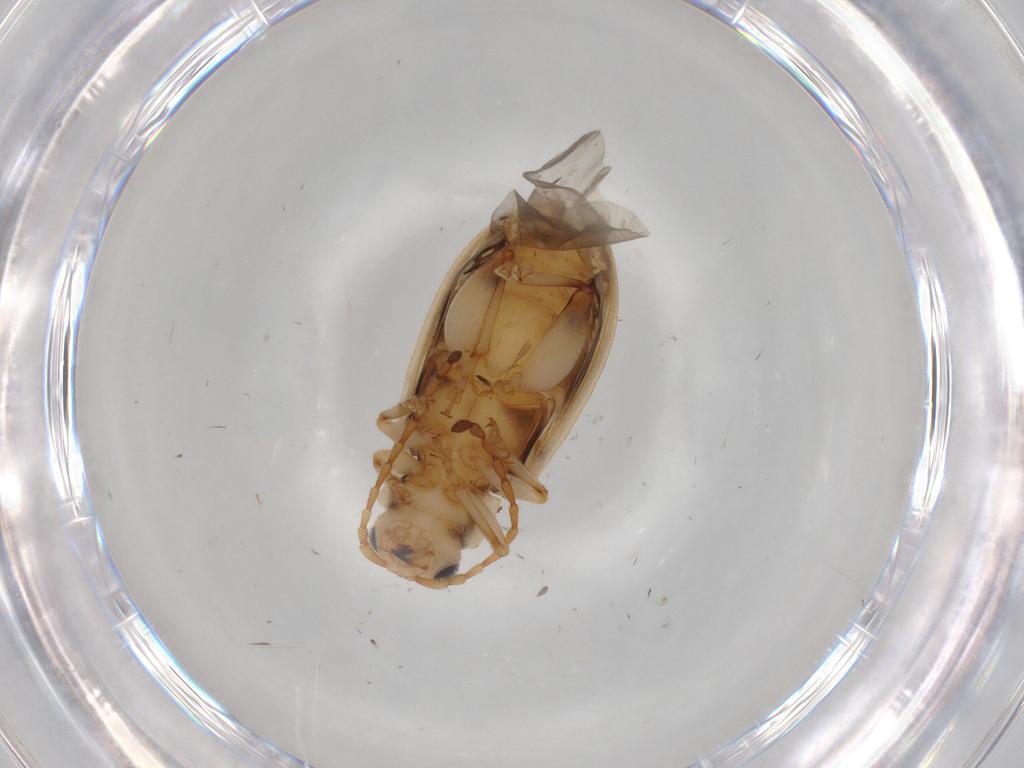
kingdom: Animalia
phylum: Arthropoda
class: Insecta
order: Coleoptera
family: Chrysomelidae
